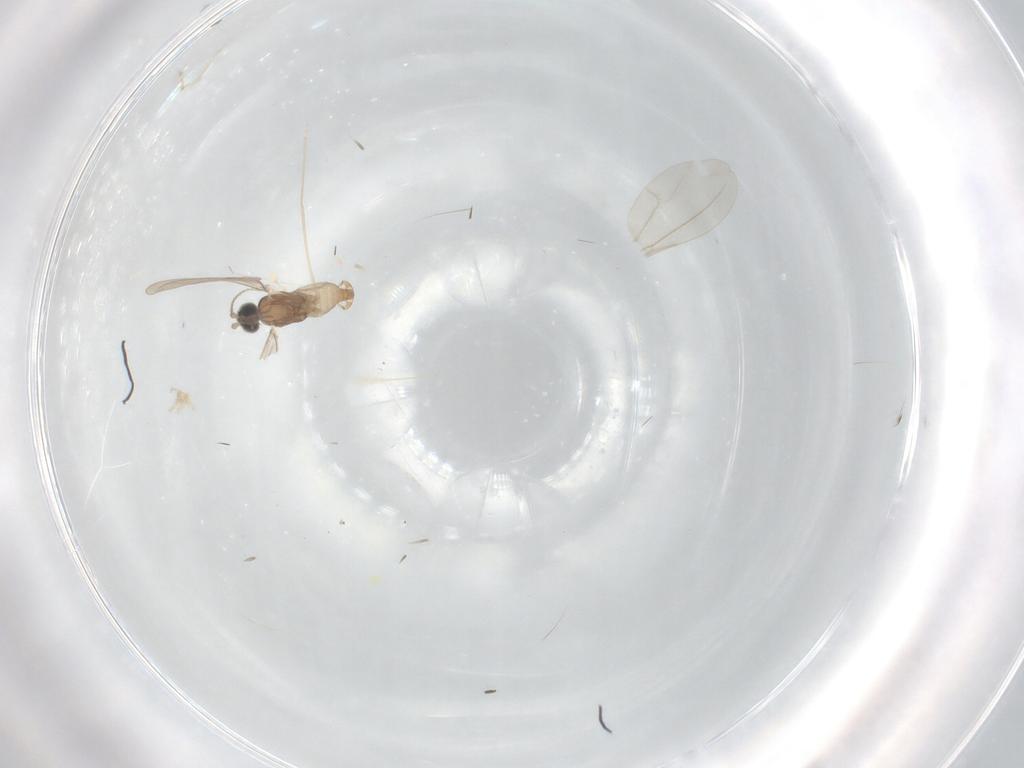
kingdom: Animalia
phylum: Arthropoda
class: Insecta
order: Diptera
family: Cecidomyiidae
